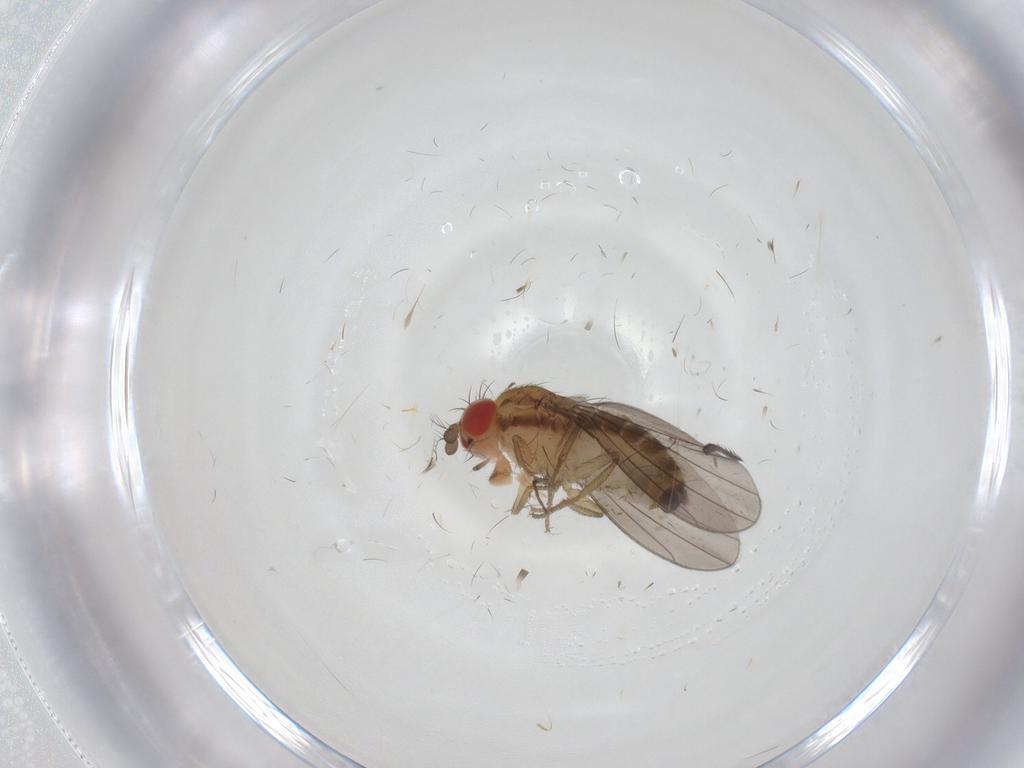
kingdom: Animalia
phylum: Arthropoda
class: Insecta
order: Diptera
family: Drosophilidae
